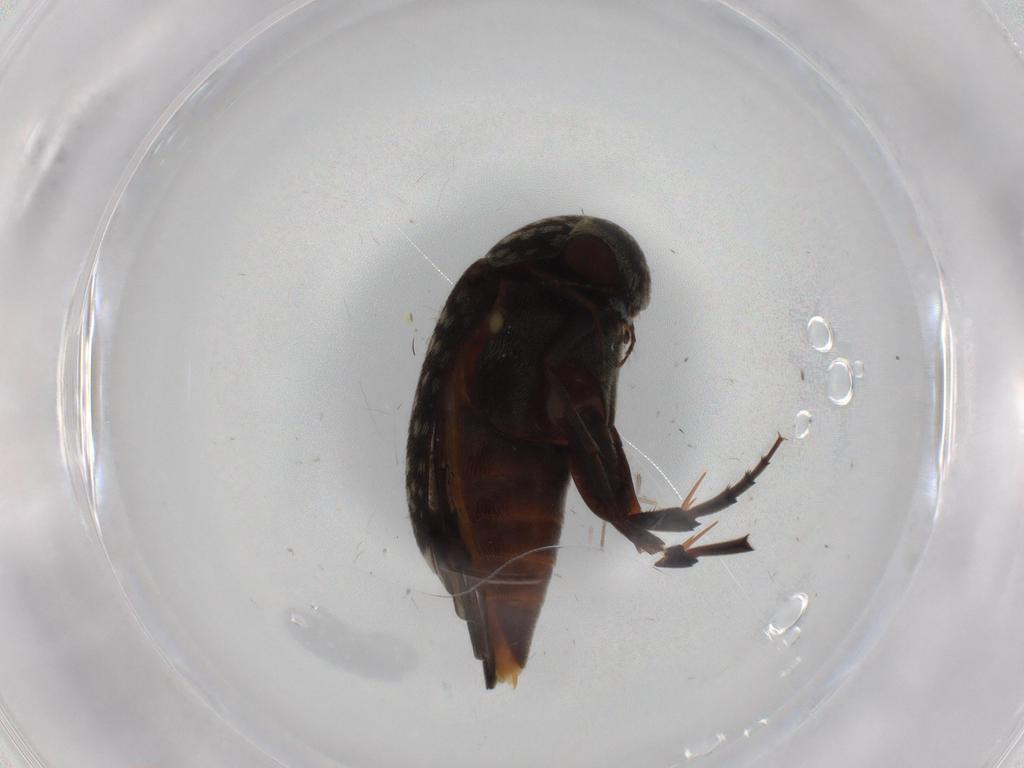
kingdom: Animalia
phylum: Arthropoda
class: Insecta
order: Coleoptera
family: Mordellidae
